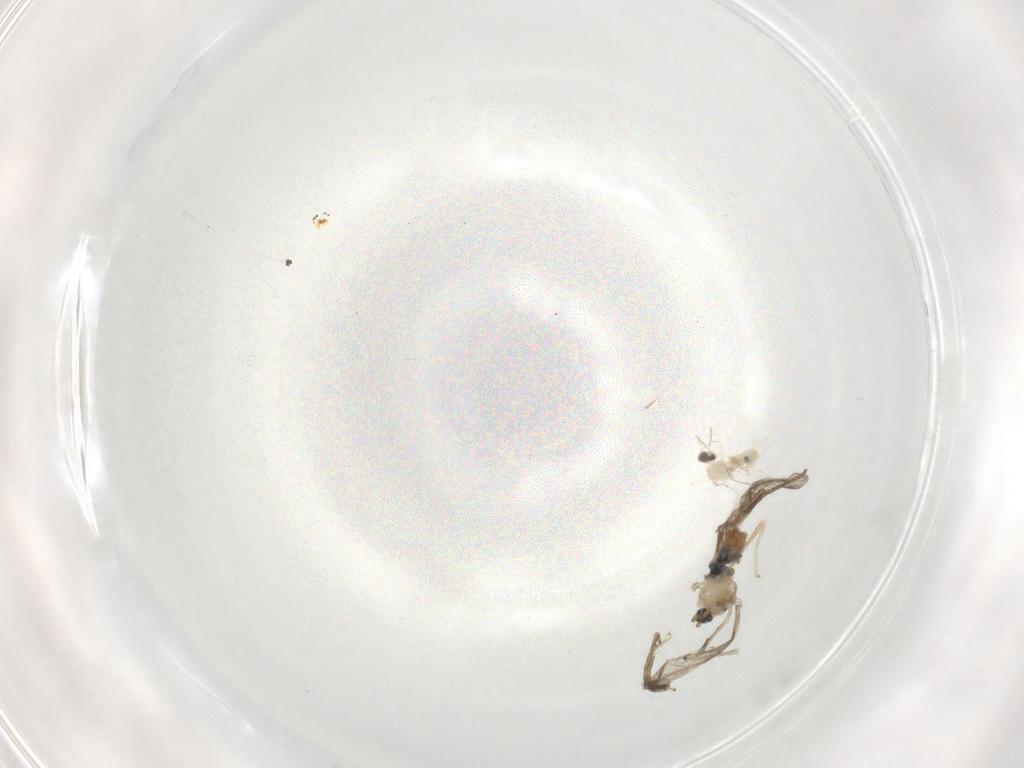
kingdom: Animalia
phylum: Arthropoda
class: Insecta
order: Diptera
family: Cecidomyiidae
